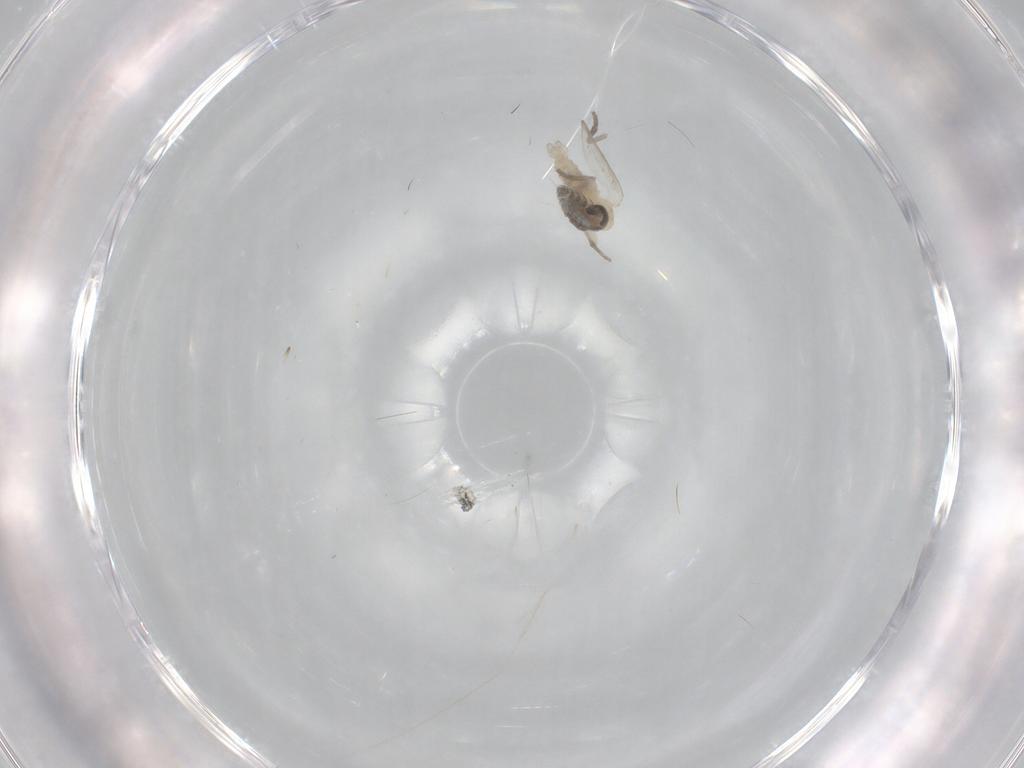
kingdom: Animalia
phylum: Arthropoda
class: Insecta
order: Diptera
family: Psychodidae
